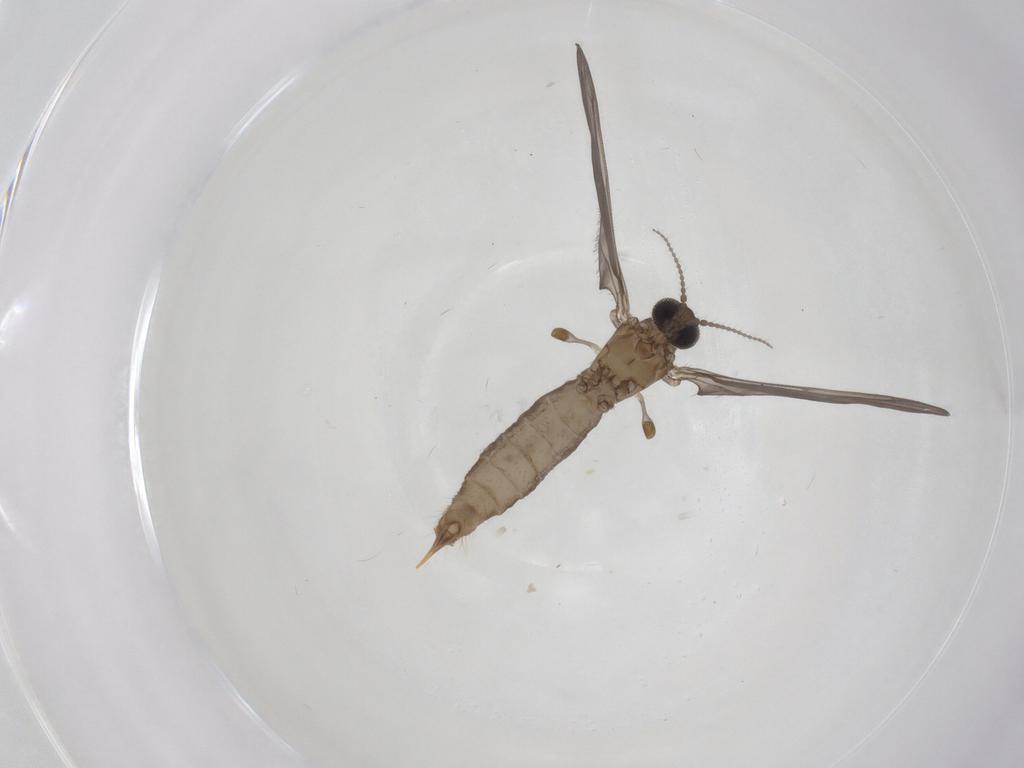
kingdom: Animalia
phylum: Arthropoda
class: Insecta
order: Diptera
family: Limoniidae
